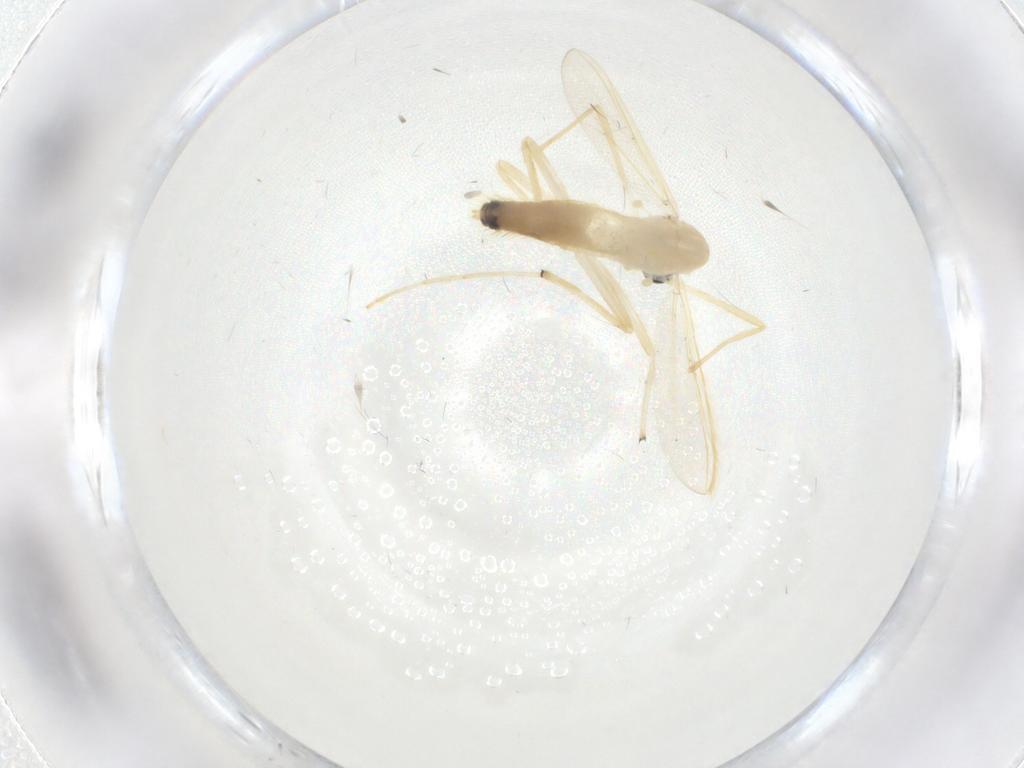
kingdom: Animalia
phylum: Arthropoda
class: Insecta
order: Diptera
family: Chironomidae
